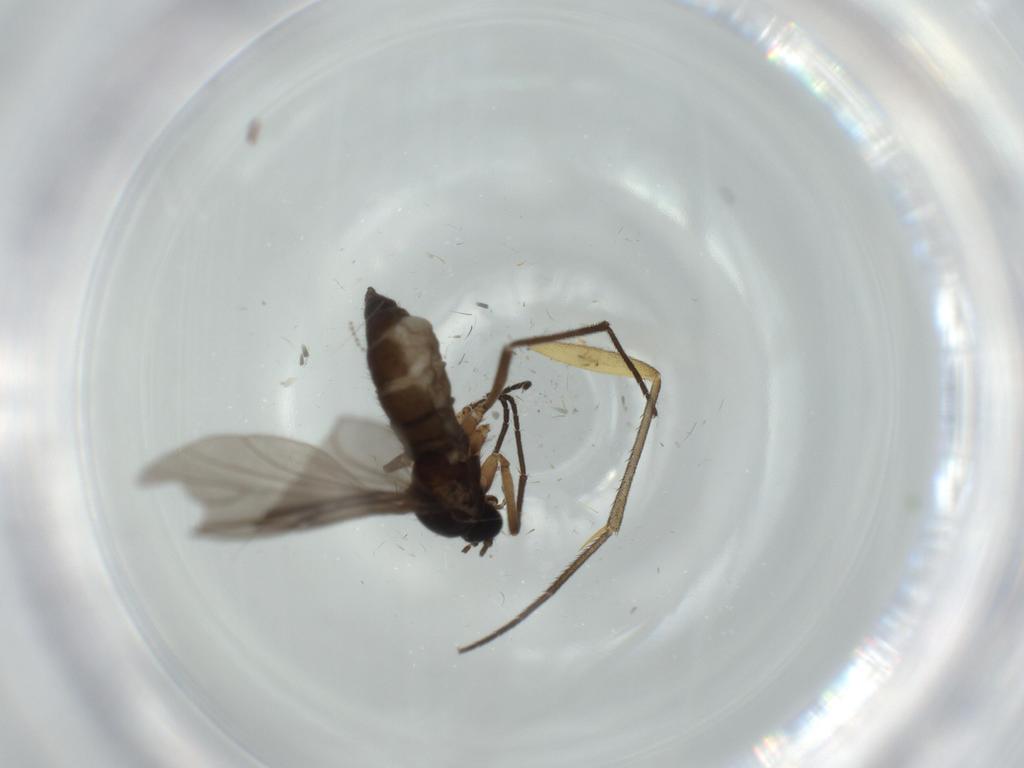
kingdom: Animalia
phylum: Arthropoda
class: Insecta
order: Diptera
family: Sciaridae
